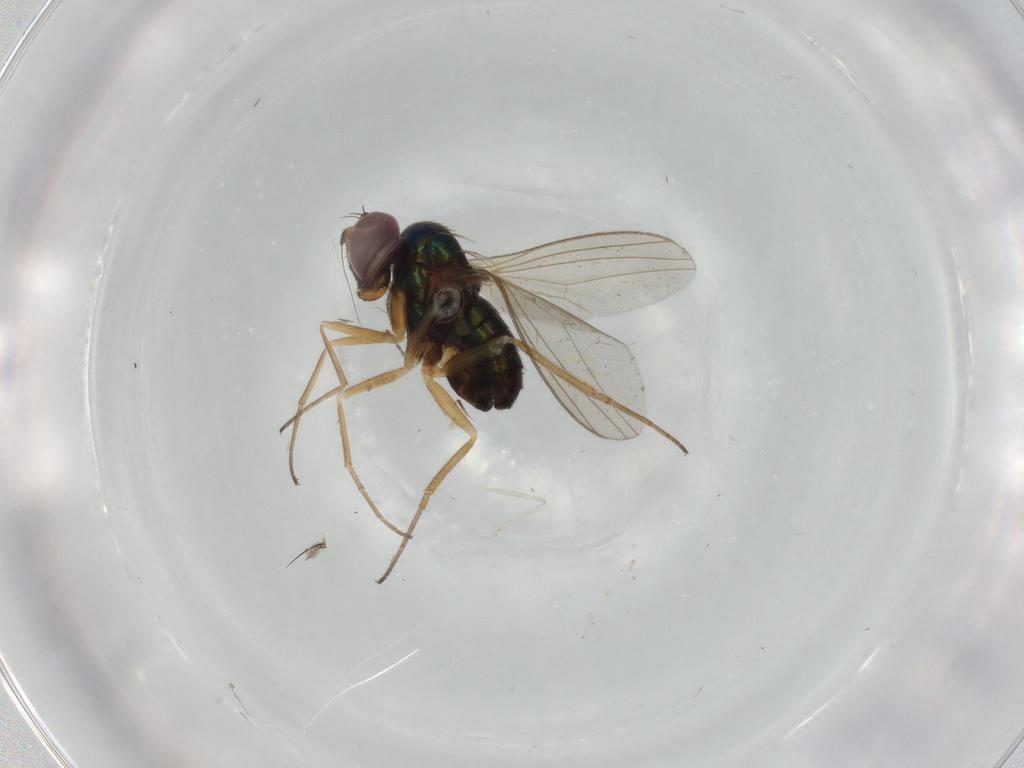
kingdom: Animalia
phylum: Arthropoda
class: Insecta
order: Diptera
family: Dolichopodidae
